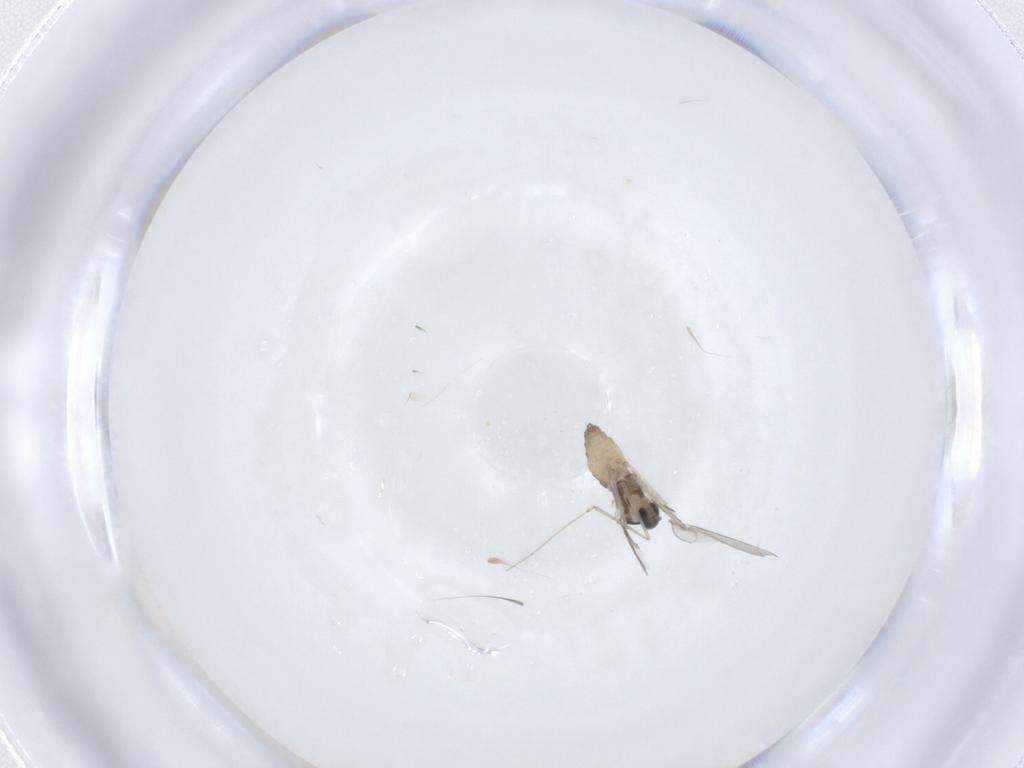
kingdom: Animalia
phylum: Arthropoda
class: Insecta
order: Diptera
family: Cecidomyiidae
